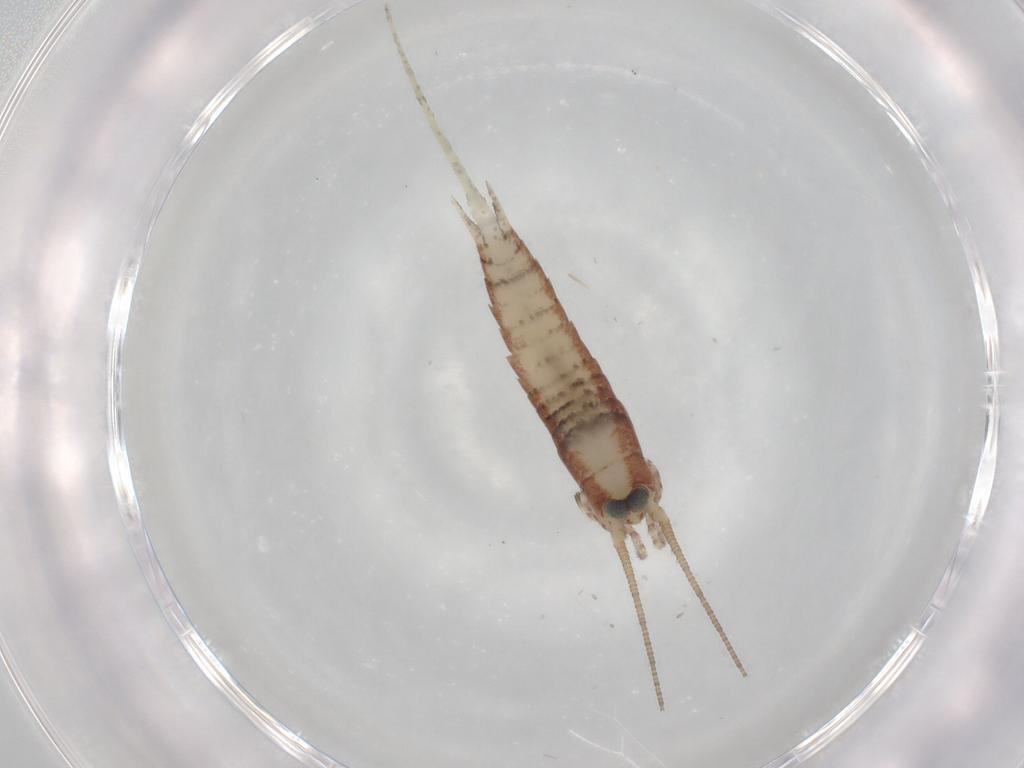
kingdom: Animalia
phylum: Arthropoda
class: Insecta
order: Archaeognatha
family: Machilidae
